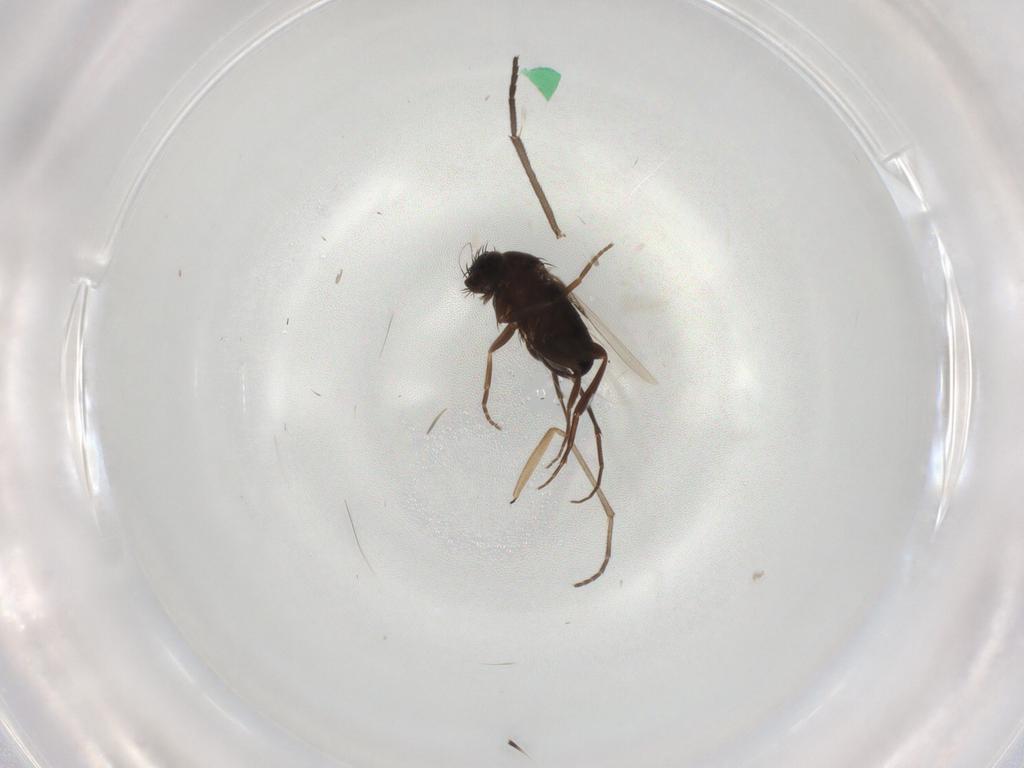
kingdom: Animalia
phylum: Arthropoda
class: Insecta
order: Diptera
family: Phoridae
